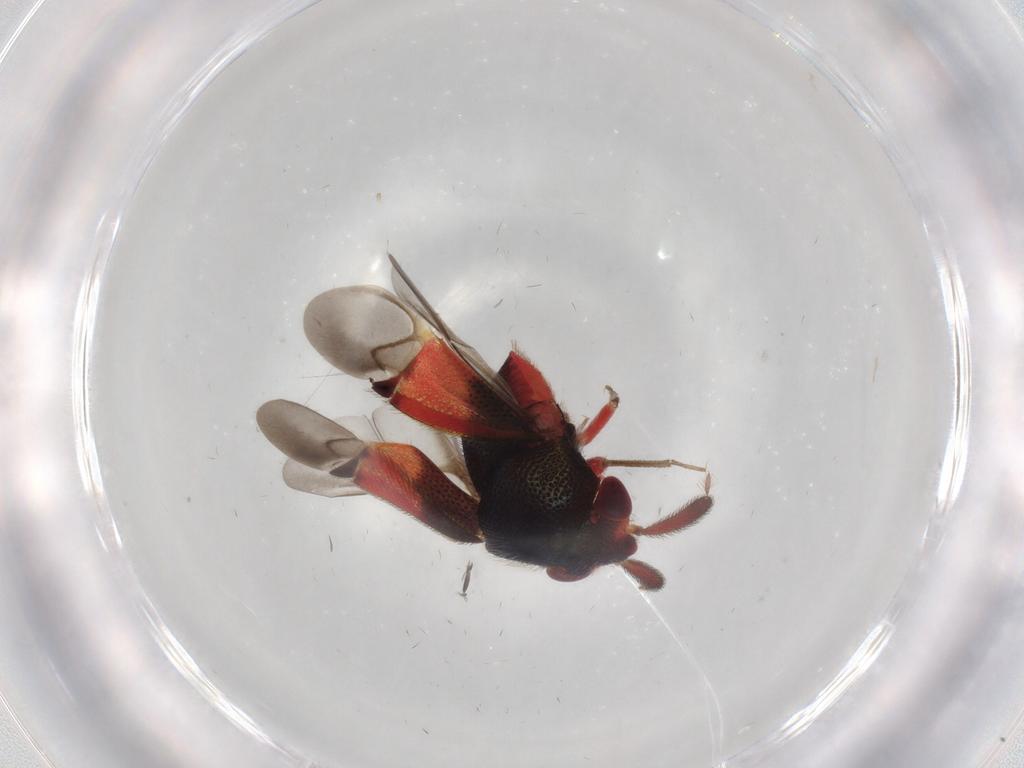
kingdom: Animalia
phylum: Arthropoda
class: Insecta
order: Hemiptera
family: Miridae
